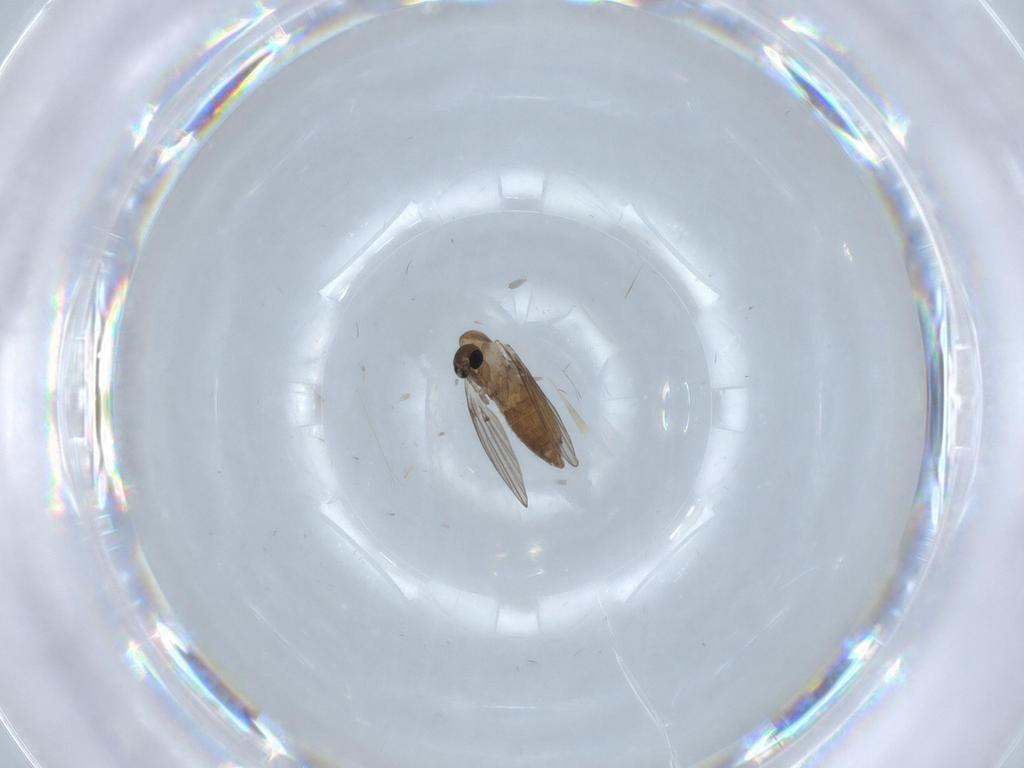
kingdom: Animalia
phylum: Arthropoda
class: Insecta
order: Diptera
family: Psychodidae
